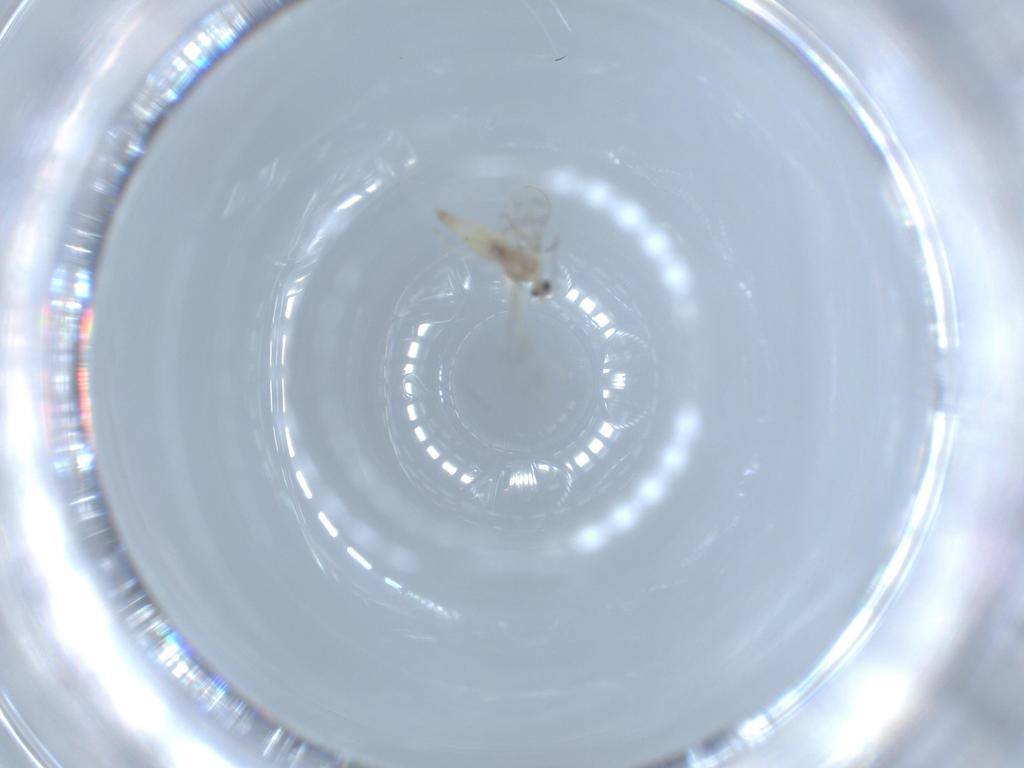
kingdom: Animalia
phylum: Arthropoda
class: Insecta
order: Diptera
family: Cecidomyiidae
